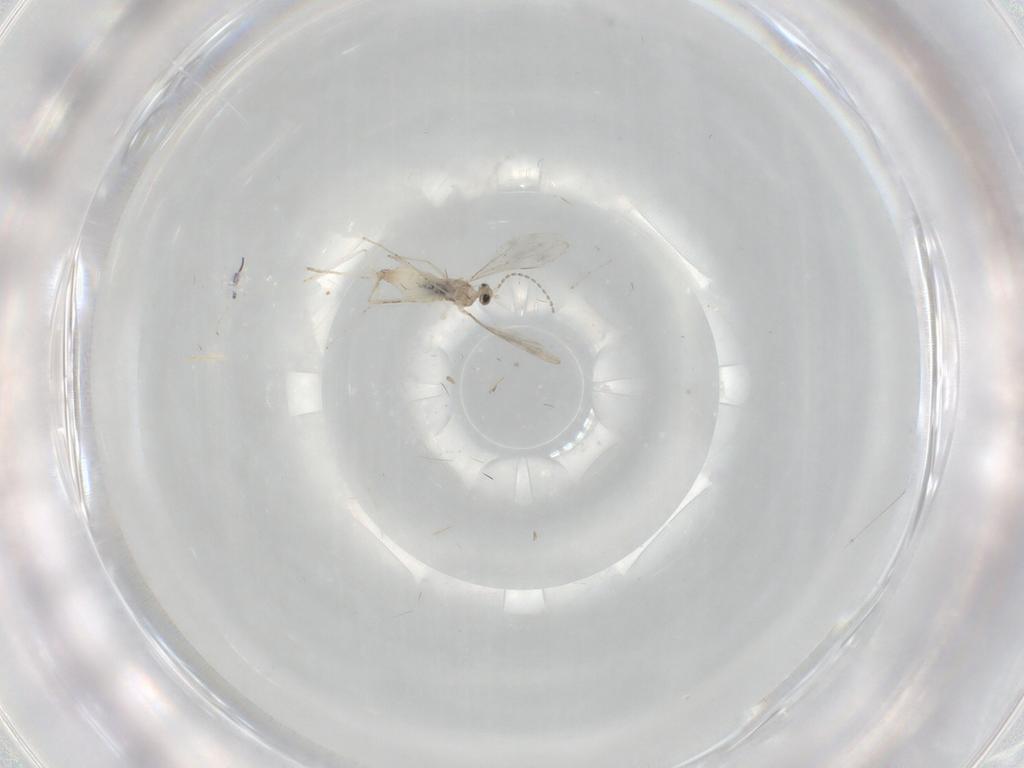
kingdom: Animalia
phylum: Arthropoda
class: Insecta
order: Diptera
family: Cecidomyiidae
